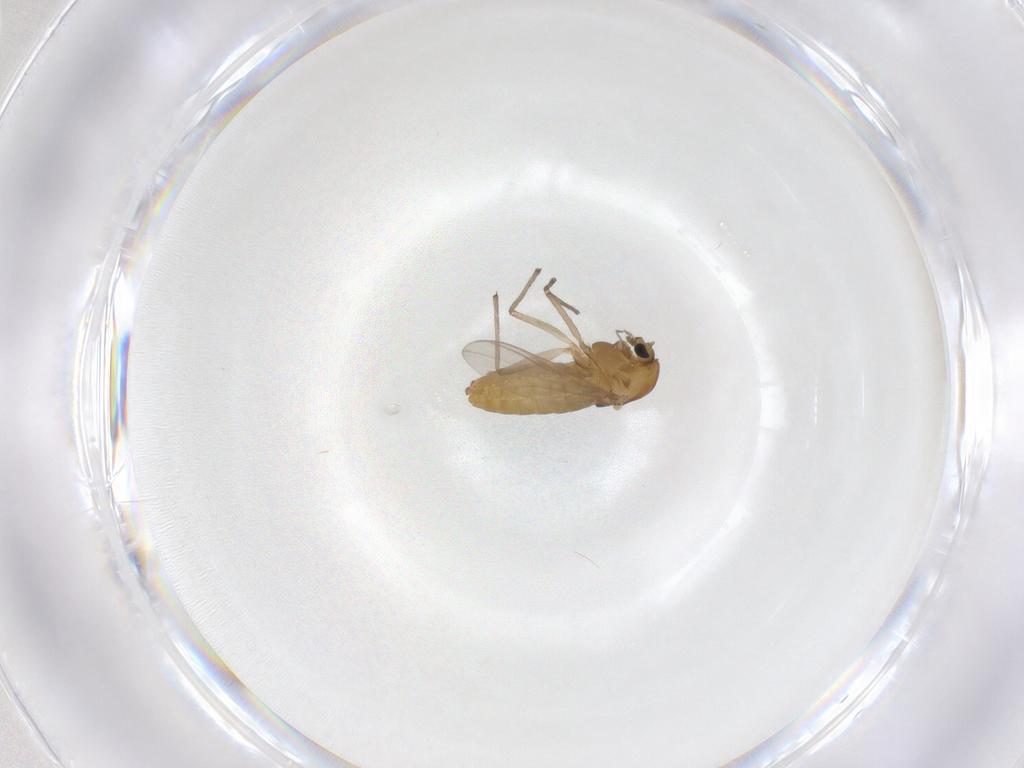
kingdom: Animalia
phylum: Arthropoda
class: Insecta
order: Diptera
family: Chironomidae
